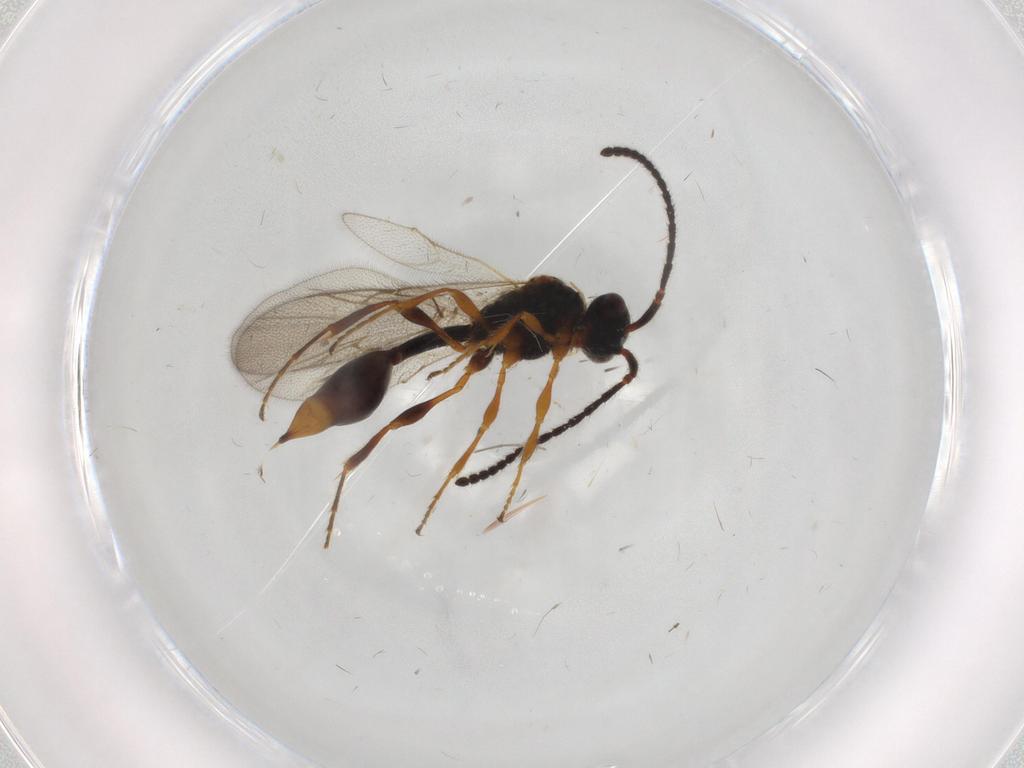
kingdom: Animalia
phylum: Arthropoda
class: Insecta
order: Hymenoptera
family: Diapriidae
